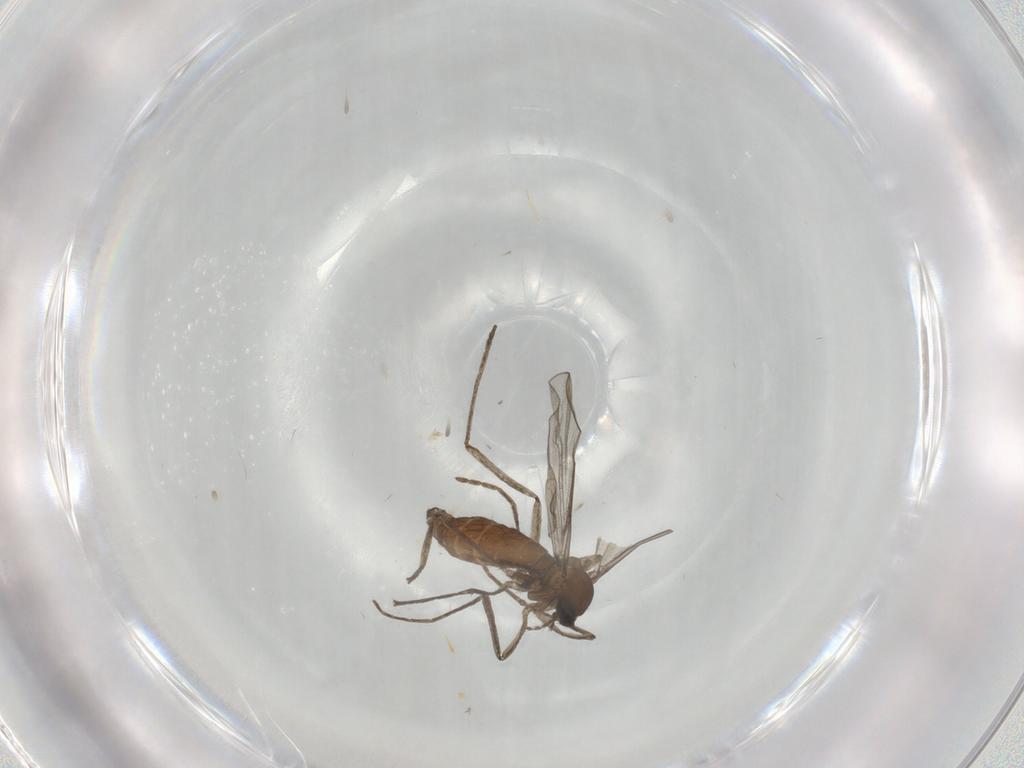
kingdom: Animalia
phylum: Arthropoda
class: Insecta
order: Diptera
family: Cecidomyiidae
